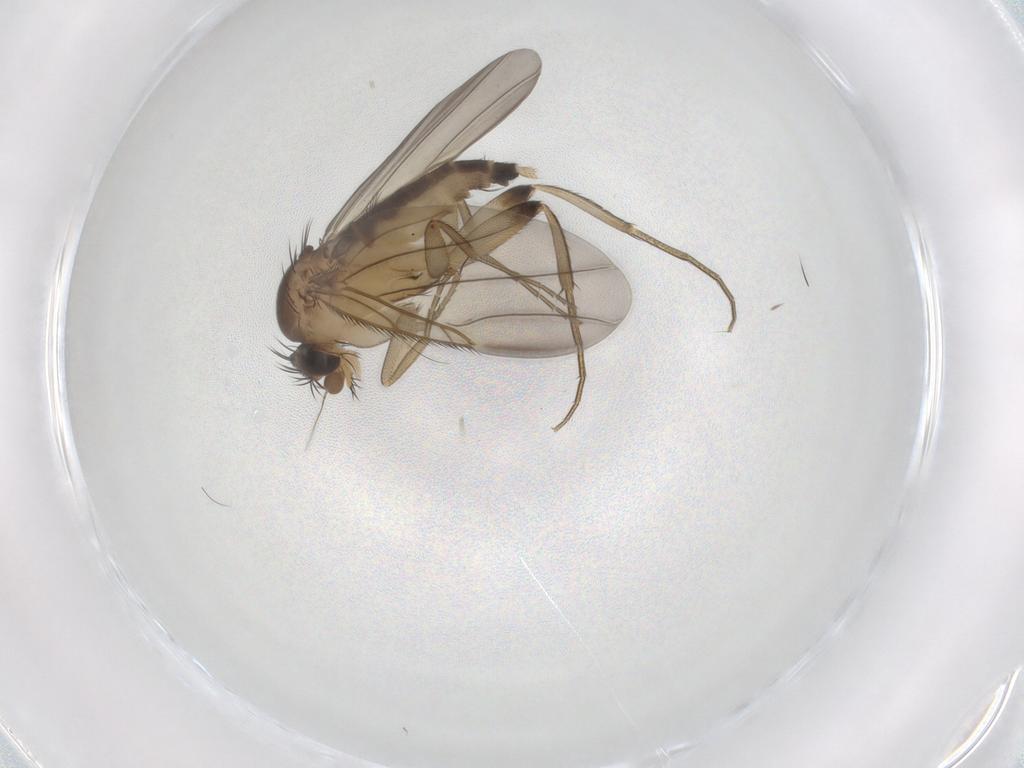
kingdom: Animalia
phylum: Arthropoda
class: Insecta
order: Diptera
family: Phoridae
